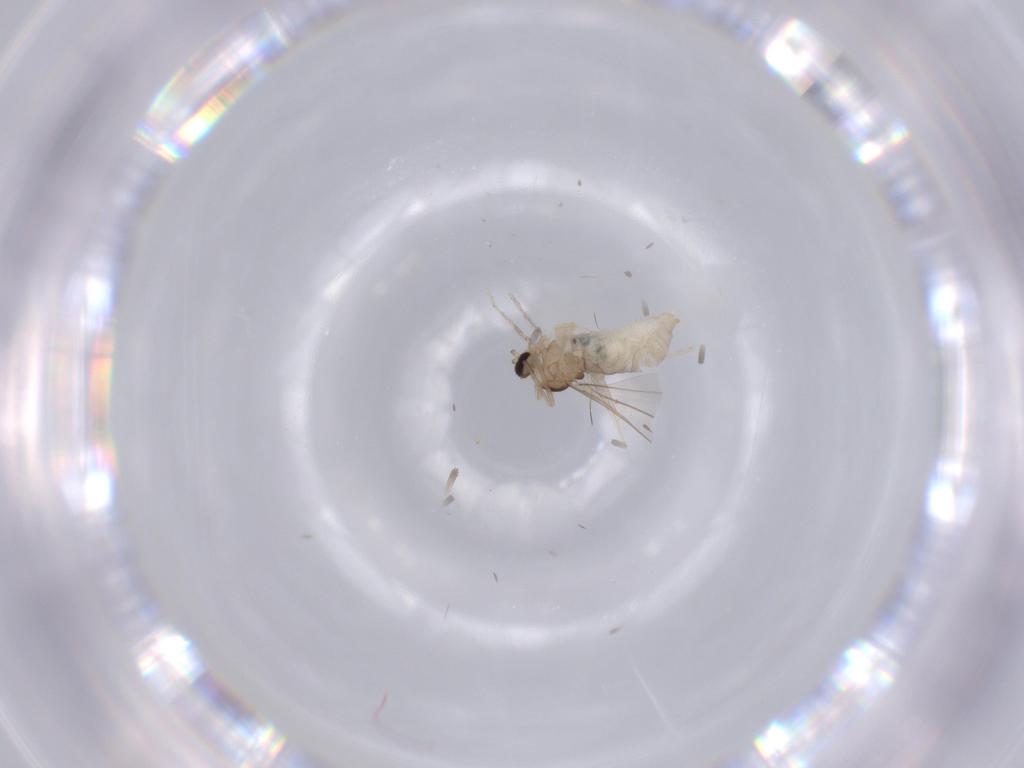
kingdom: Animalia
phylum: Arthropoda
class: Insecta
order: Diptera
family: Cecidomyiidae
